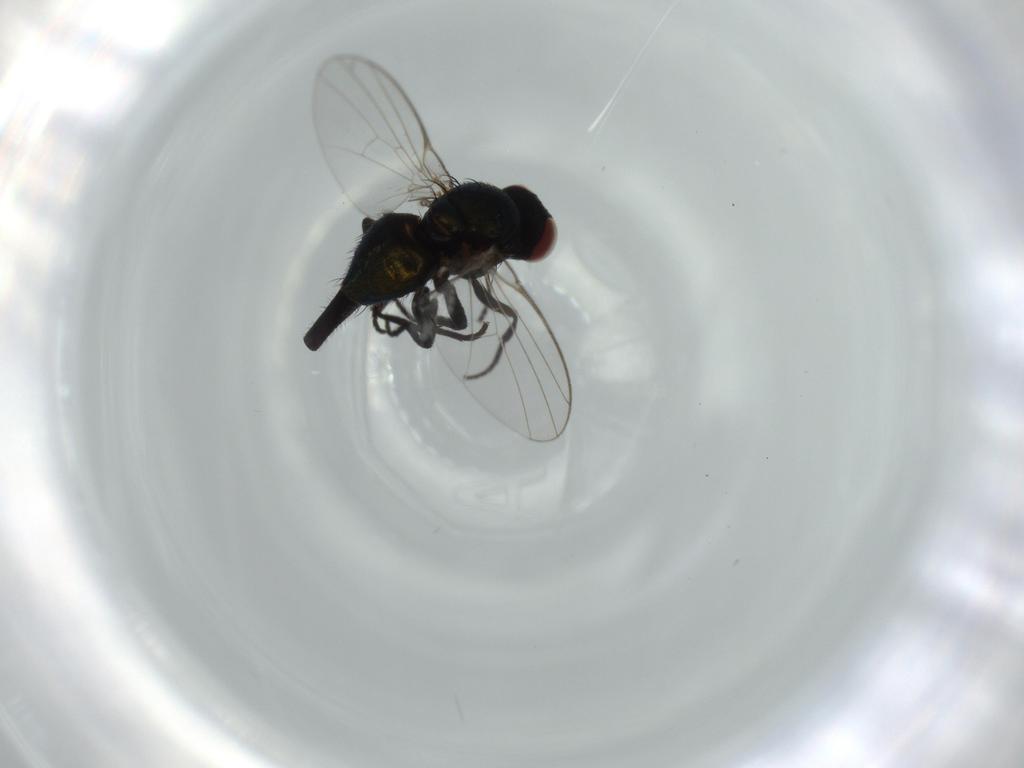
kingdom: Animalia
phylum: Arthropoda
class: Insecta
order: Diptera
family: Agromyzidae
